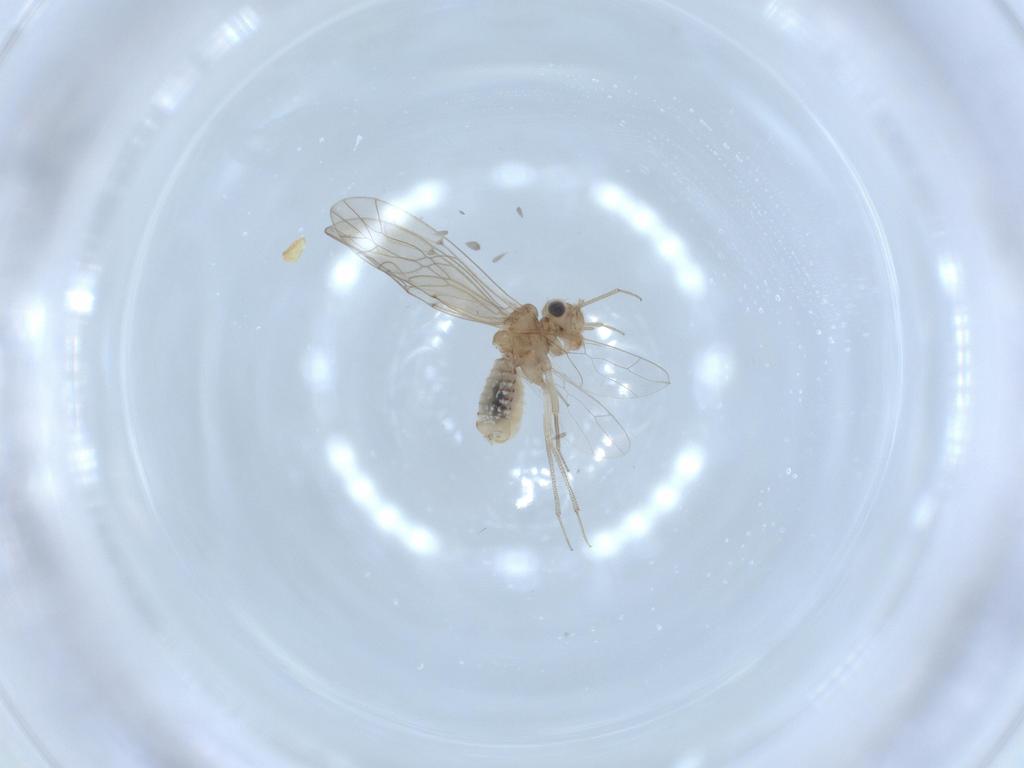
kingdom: Animalia
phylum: Arthropoda
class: Insecta
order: Psocodea
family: Lachesillidae
